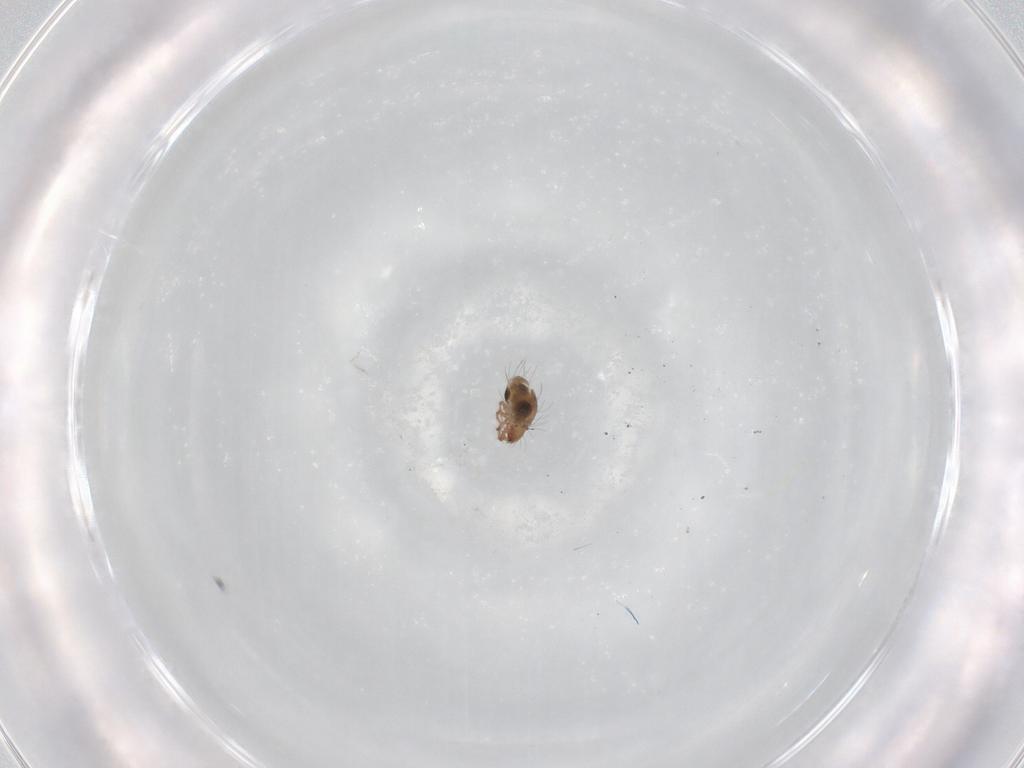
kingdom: Animalia
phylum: Arthropoda
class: Arachnida
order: Sarcoptiformes
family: Humerobatidae
